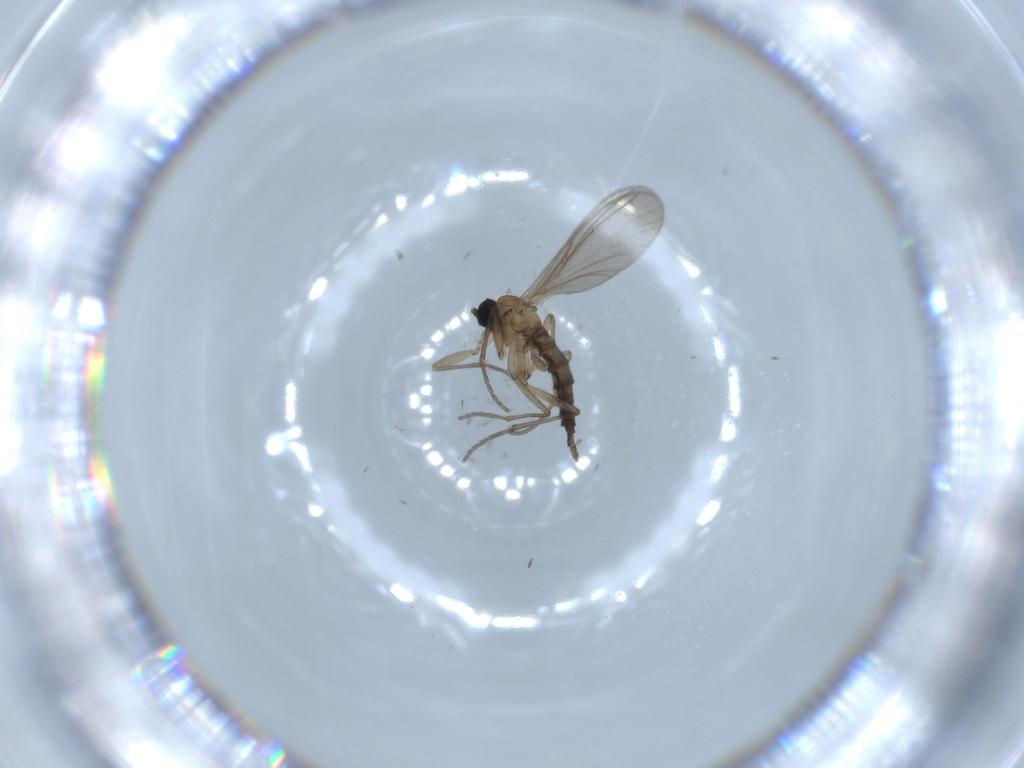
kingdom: Animalia
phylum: Arthropoda
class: Insecta
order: Diptera
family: Sciaridae
